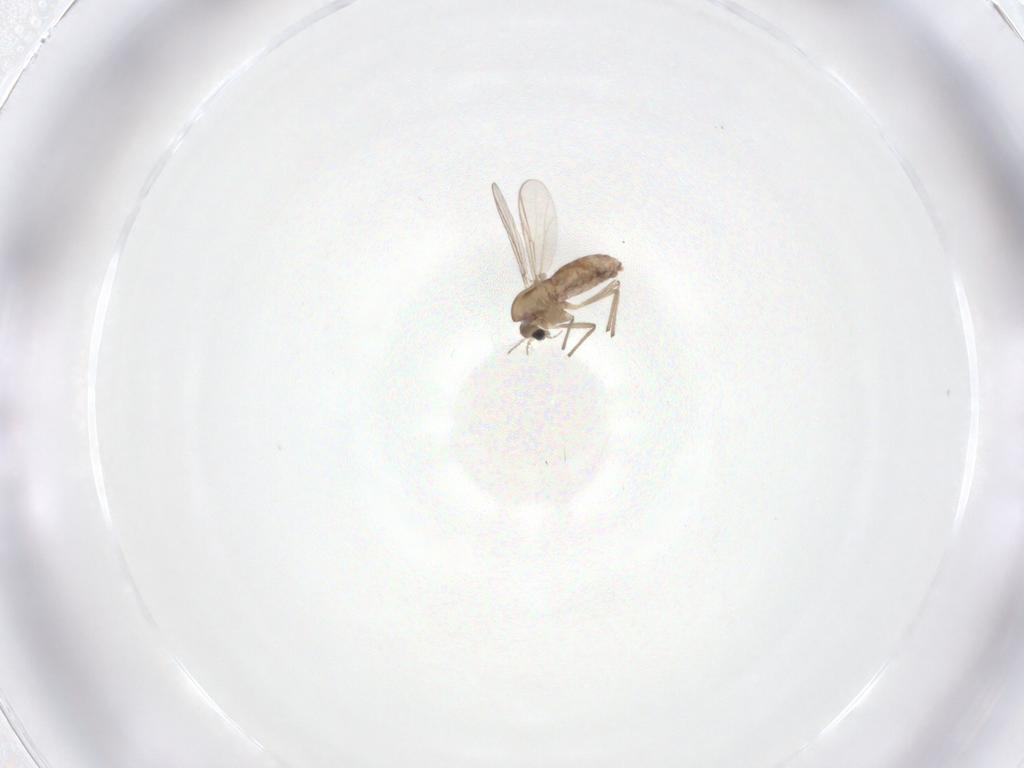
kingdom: Animalia
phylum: Arthropoda
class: Insecta
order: Diptera
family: Chironomidae
